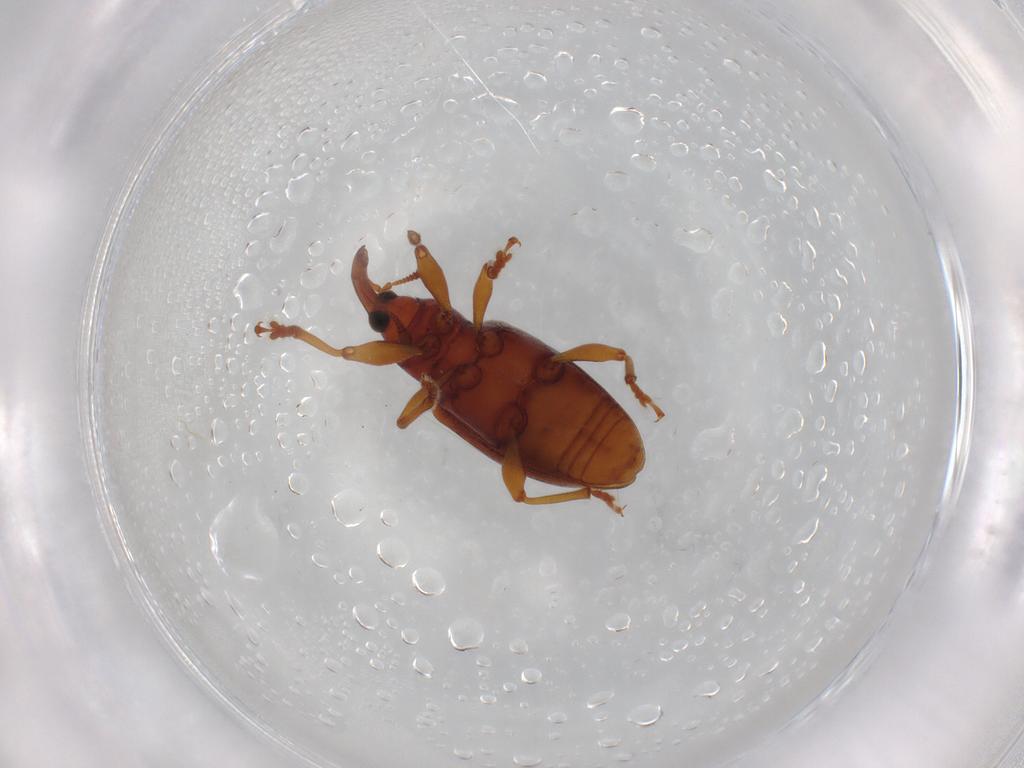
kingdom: Animalia
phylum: Arthropoda
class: Insecta
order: Coleoptera
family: Curculionidae
